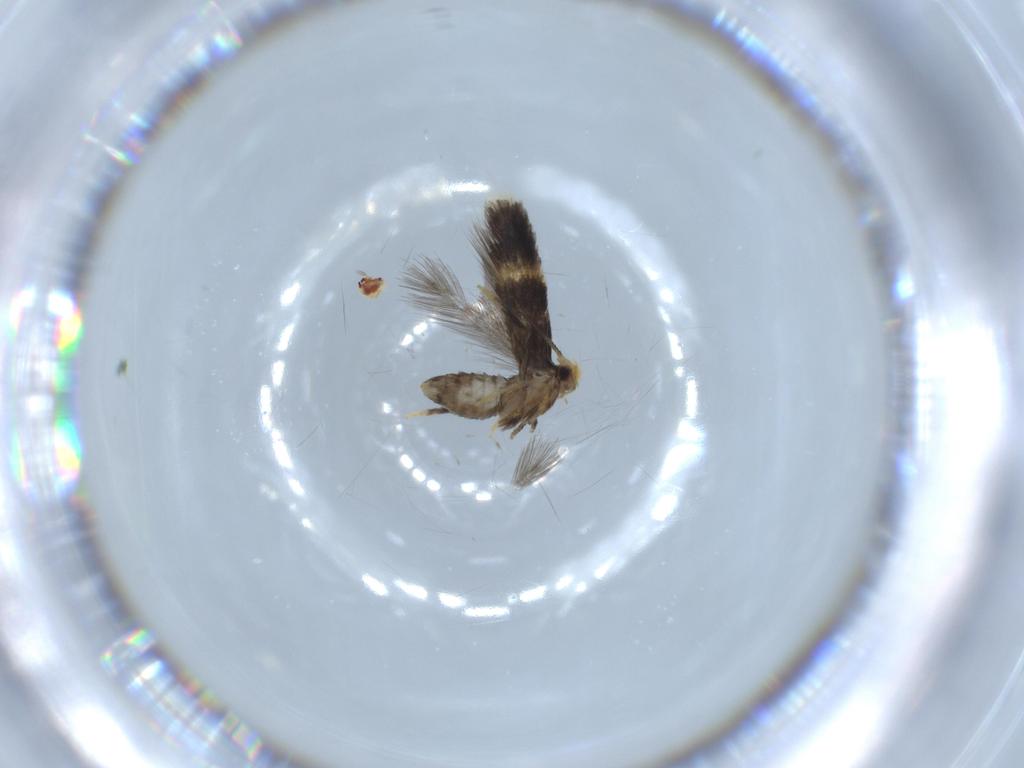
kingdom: Animalia
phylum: Arthropoda
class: Insecta
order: Lepidoptera
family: Nepticulidae
